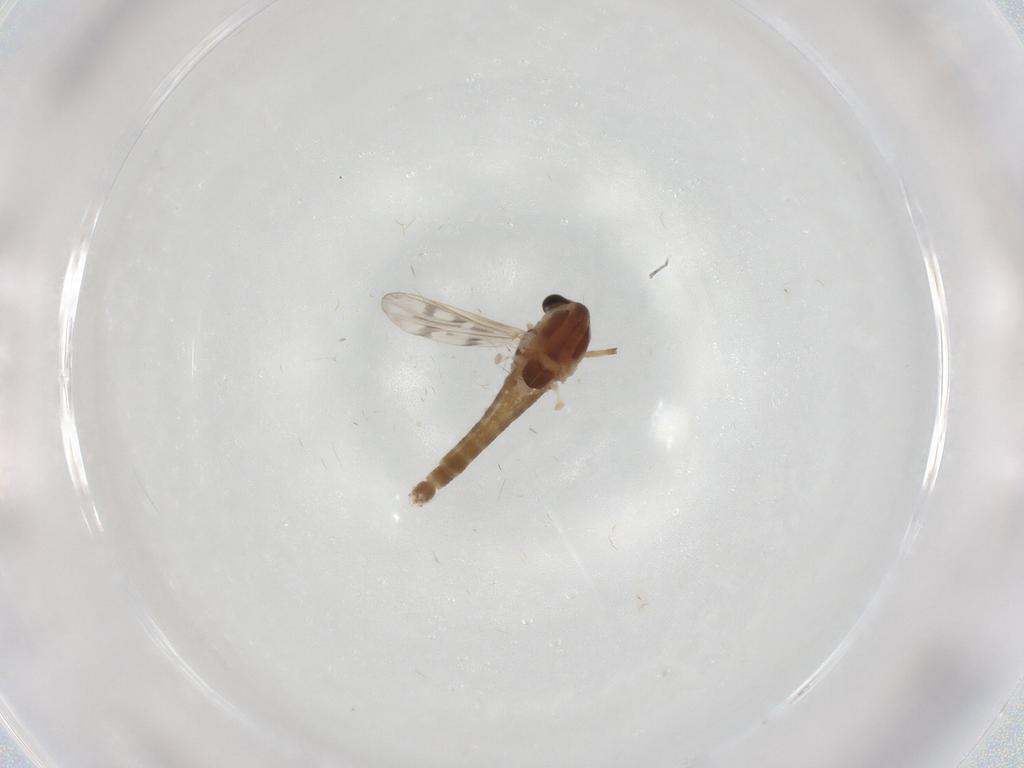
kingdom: Animalia
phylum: Arthropoda
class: Insecta
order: Diptera
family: Chironomidae
